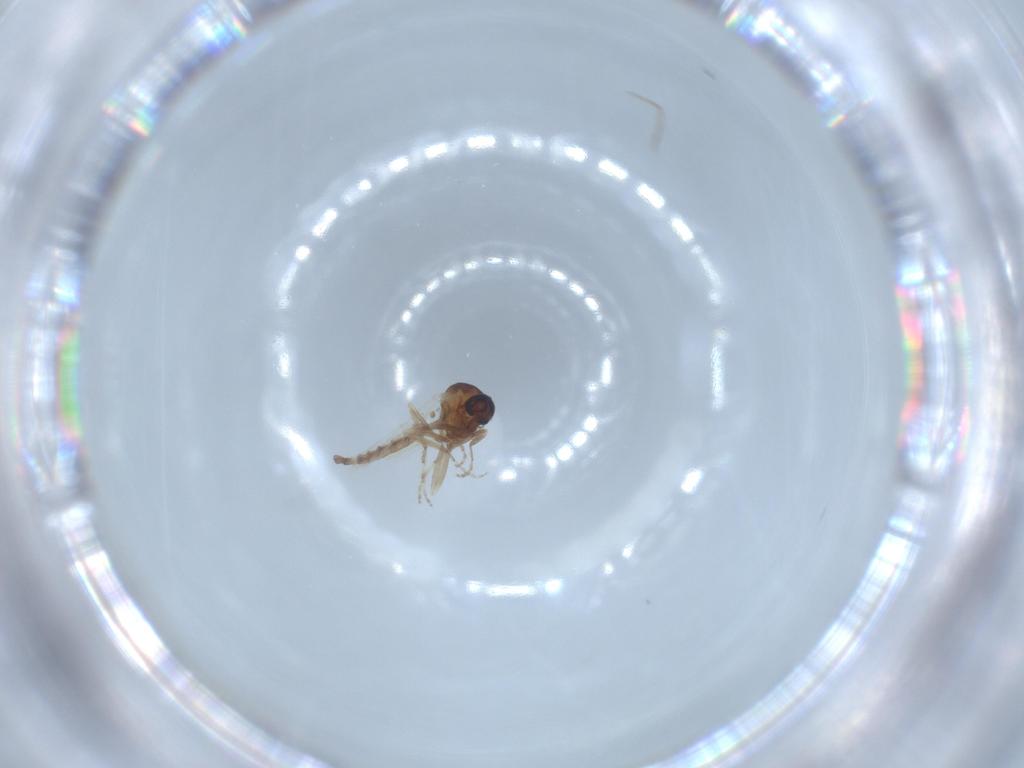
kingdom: Animalia
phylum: Arthropoda
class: Insecta
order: Diptera
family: Ceratopogonidae
